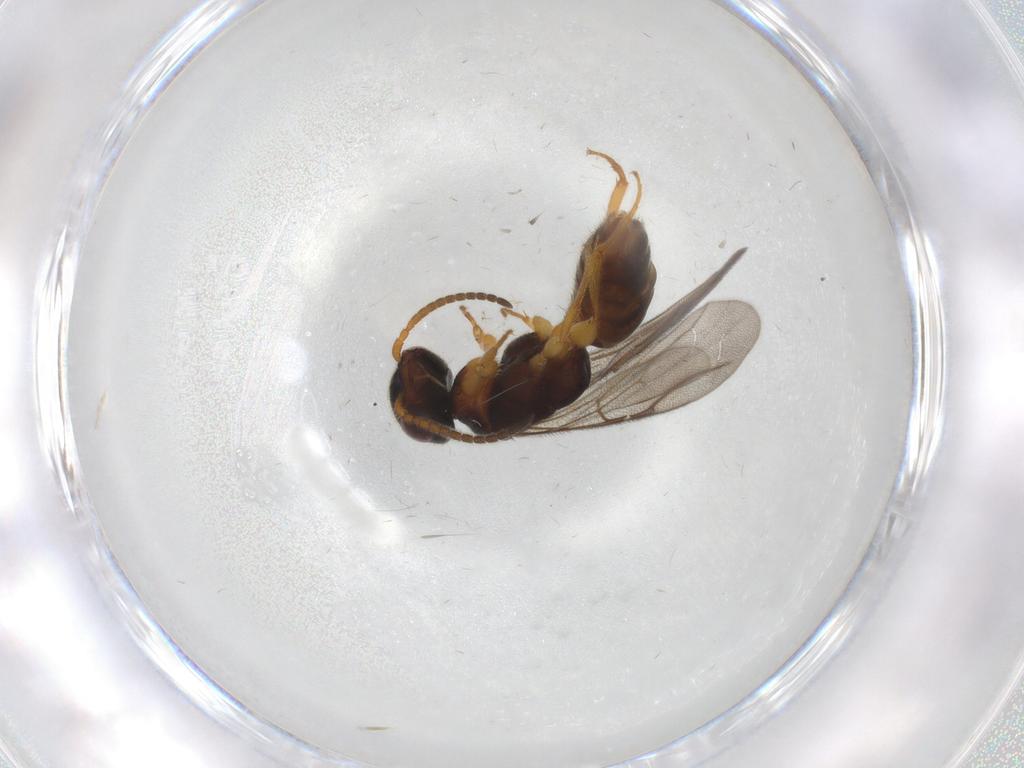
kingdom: Animalia
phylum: Arthropoda
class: Insecta
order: Hymenoptera
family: Bethylidae
